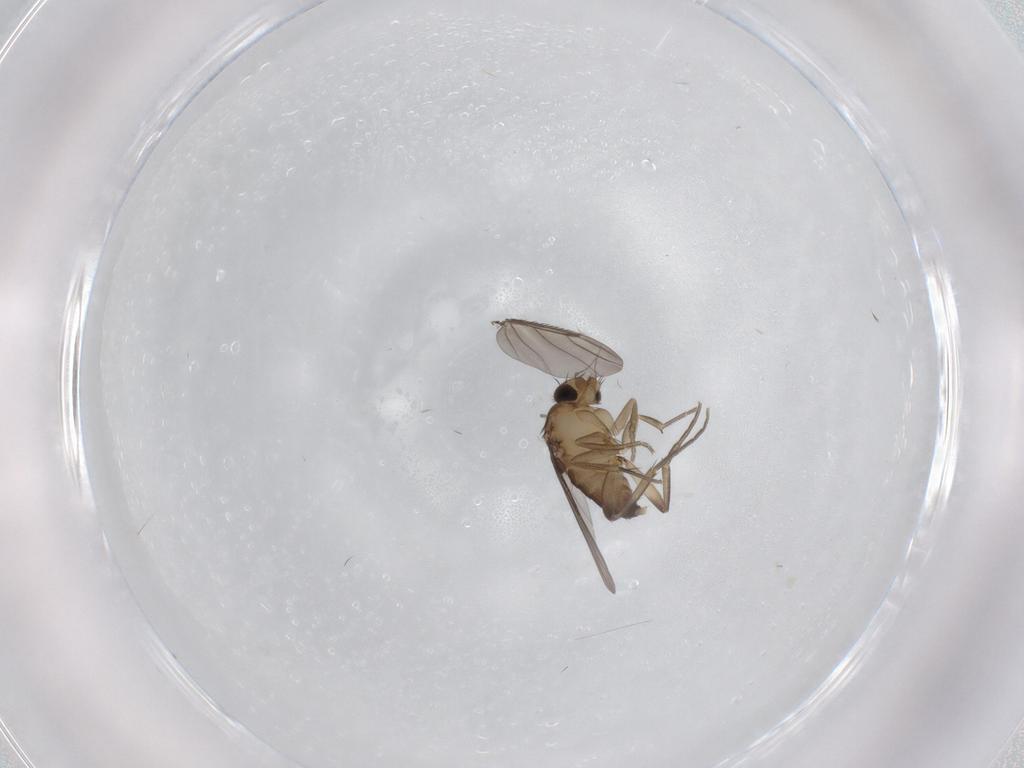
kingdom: Animalia
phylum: Arthropoda
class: Insecta
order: Diptera
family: Phoridae
